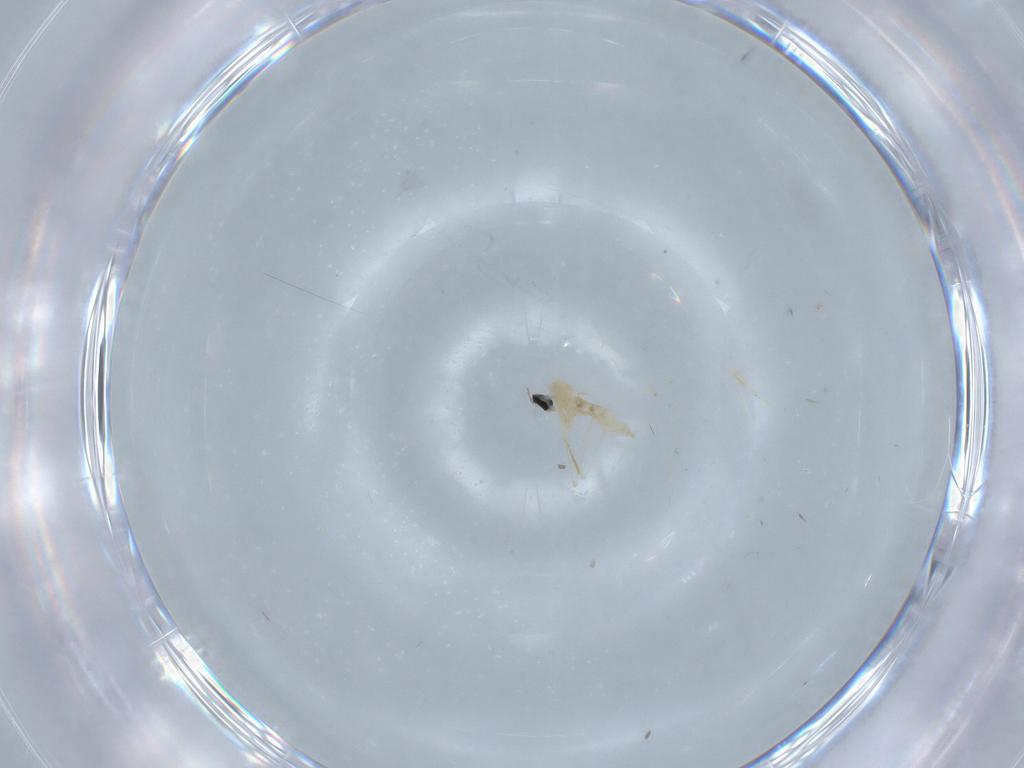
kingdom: Animalia
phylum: Arthropoda
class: Insecta
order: Diptera
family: Cecidomyiidae
